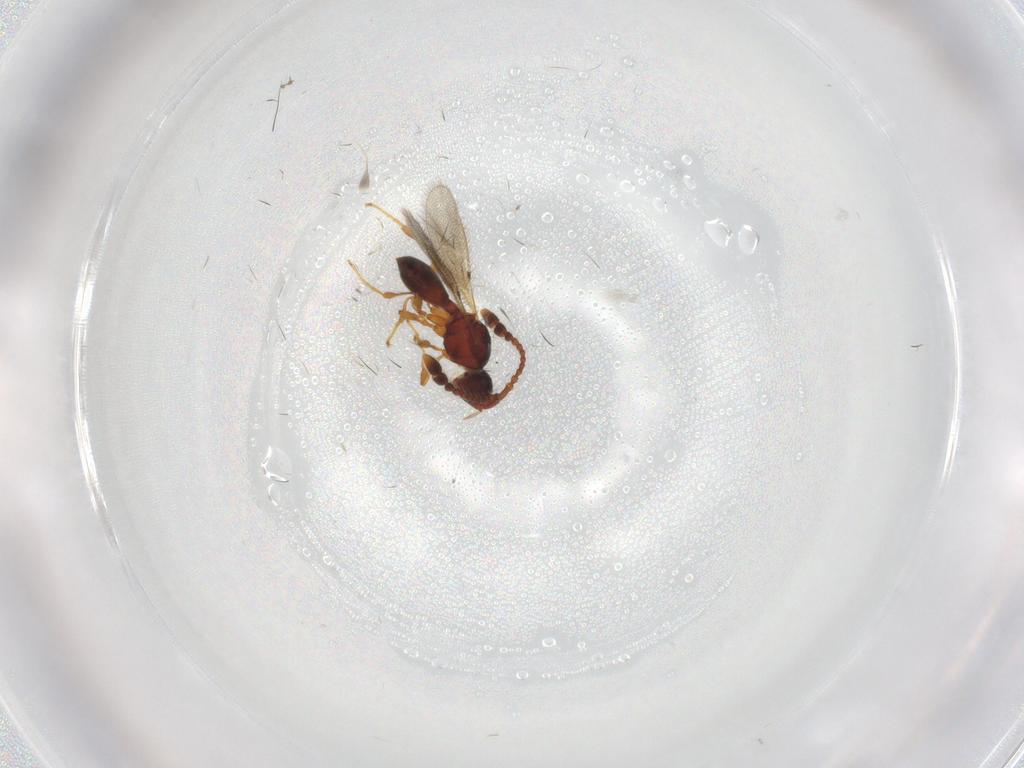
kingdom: Animalia
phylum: Arthropoda
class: Insecta
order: Hymenoptera
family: Diapriidae
